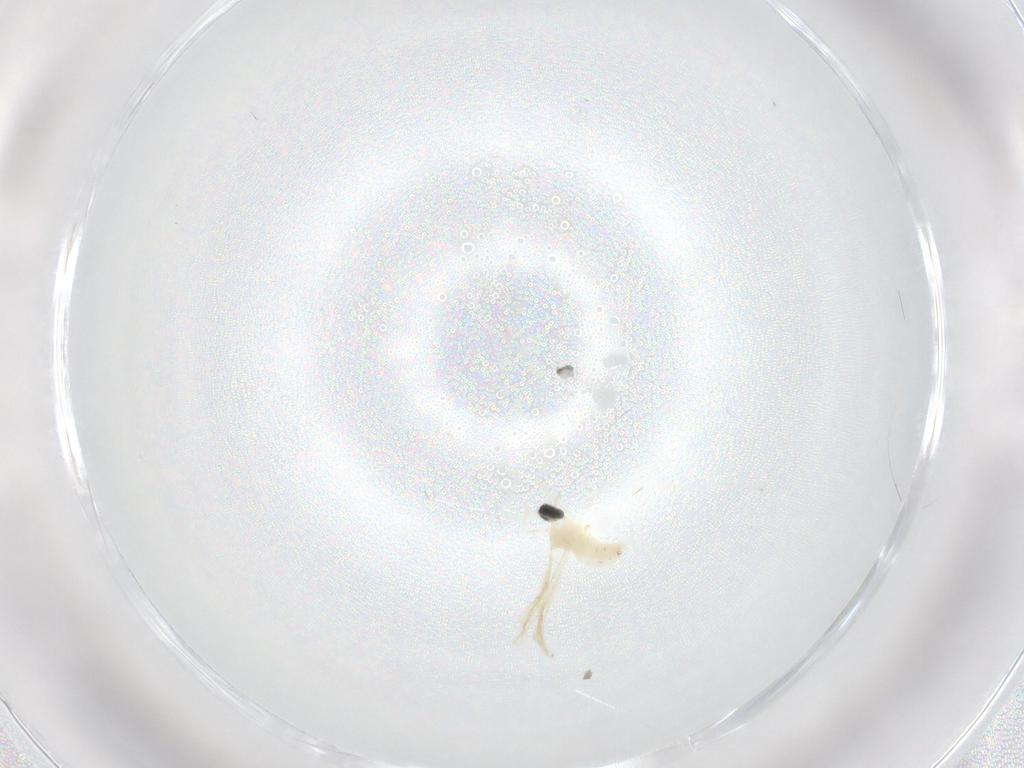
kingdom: Animalia
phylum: Arthropoda
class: Insecta
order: Diptera
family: Cecidomyiidae
